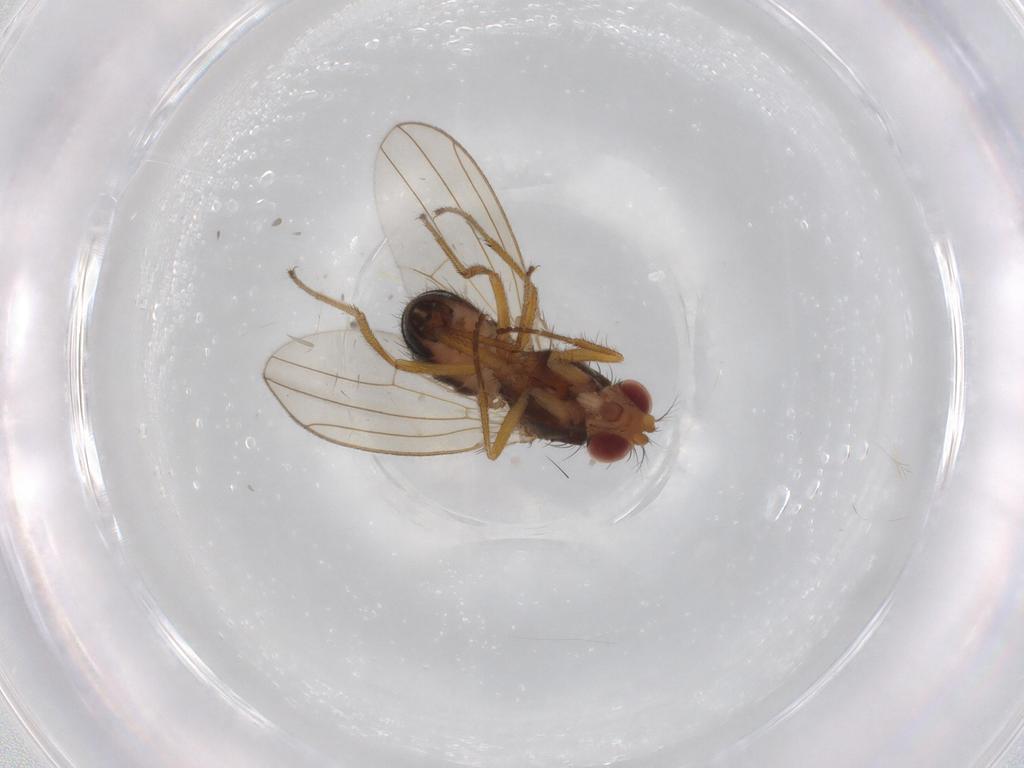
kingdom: Animalia
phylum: Arthropoda
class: Insecta
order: Diptera
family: Drosophilidae
